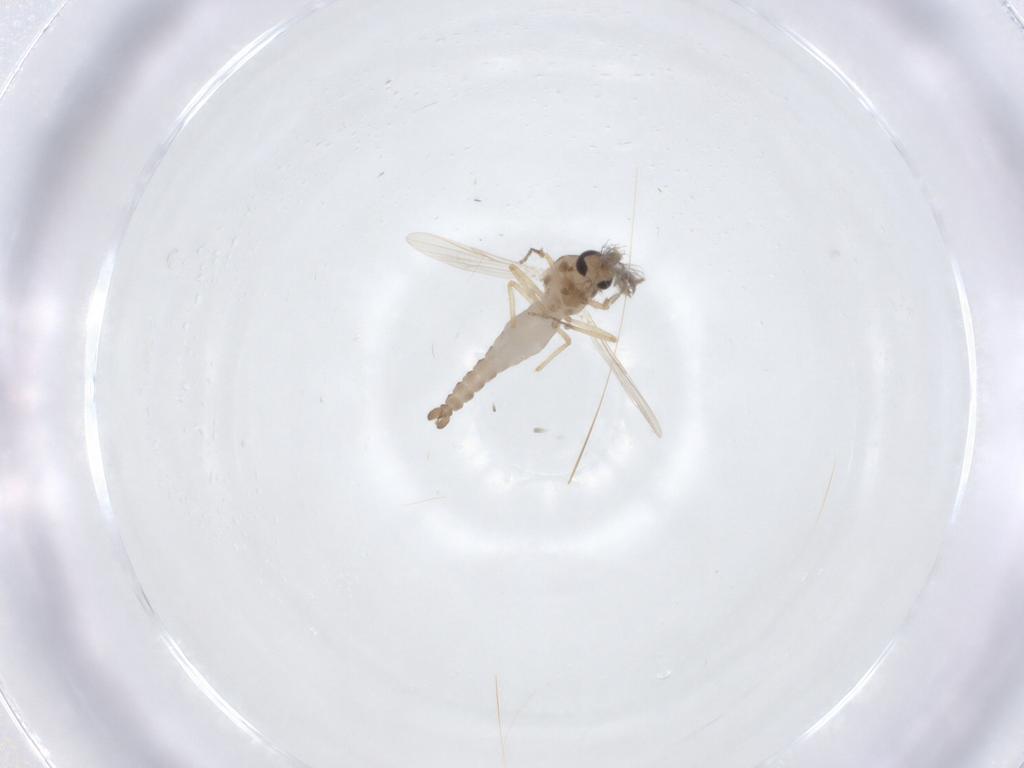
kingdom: Animalia
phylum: Arthropoda
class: Insecta
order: Diptera
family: Ceratopogonidae
